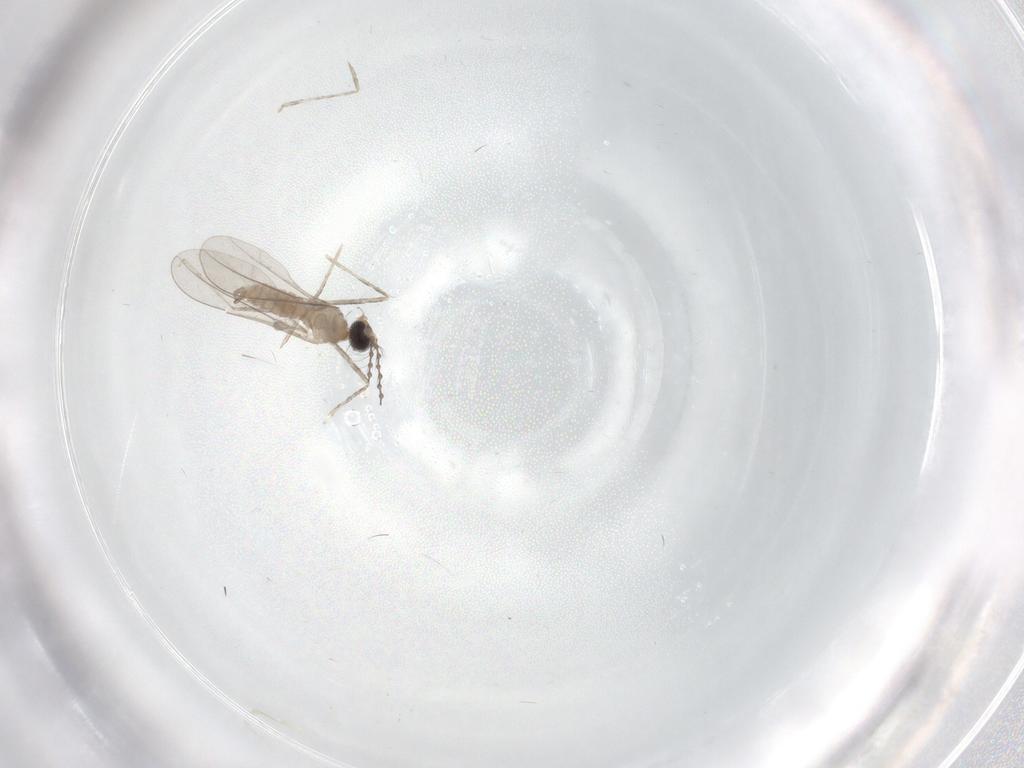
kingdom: Animalia
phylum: Arthropoda
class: Insecta
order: Diptera
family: Cecidomyiidae
